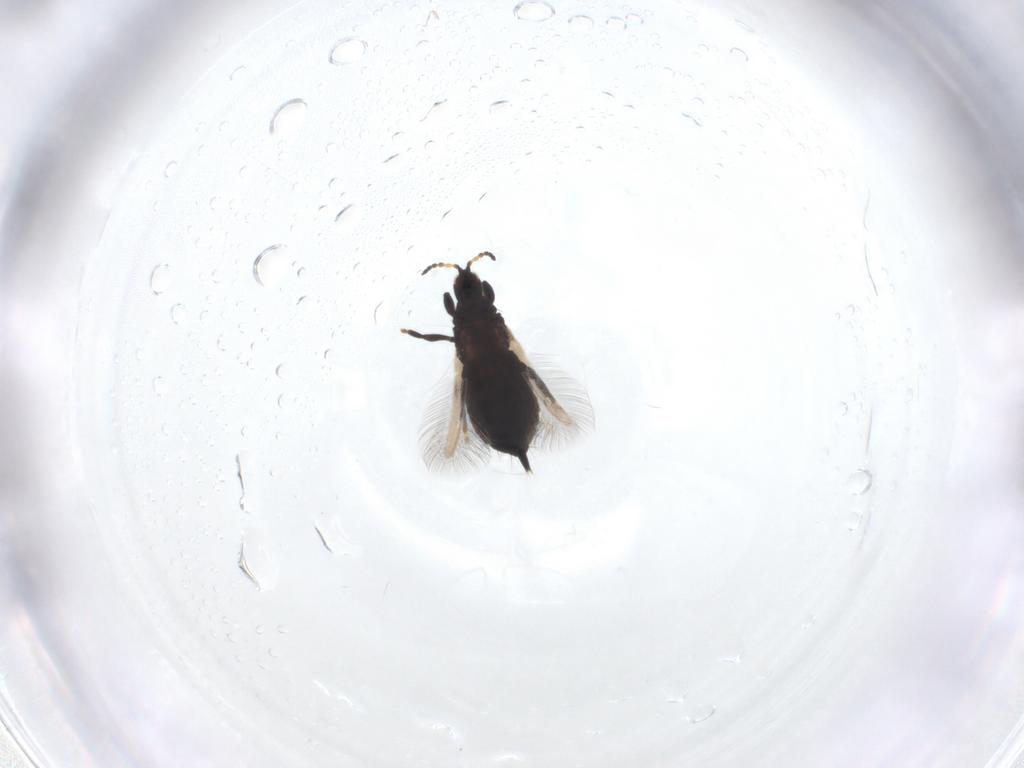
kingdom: Animalia
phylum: Arthropoda
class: Insecta
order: Thysanoptera
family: Phlaeothripidae
